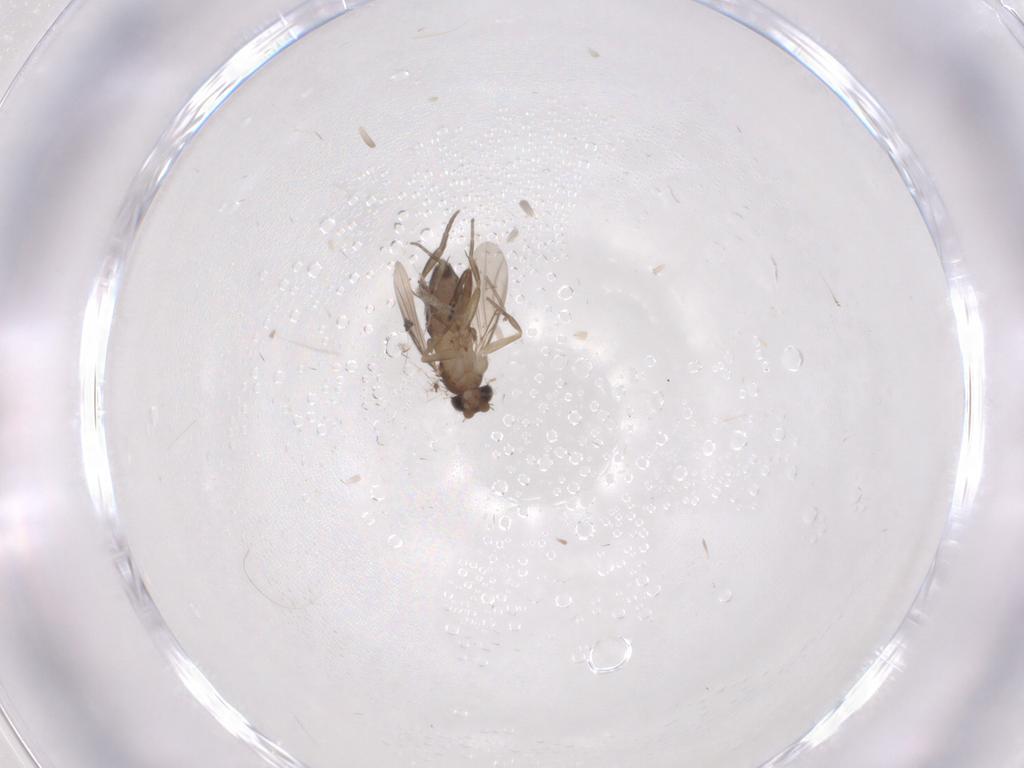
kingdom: Animalia
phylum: Arthropoda
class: Insecta
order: Diptera
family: Phoridae
